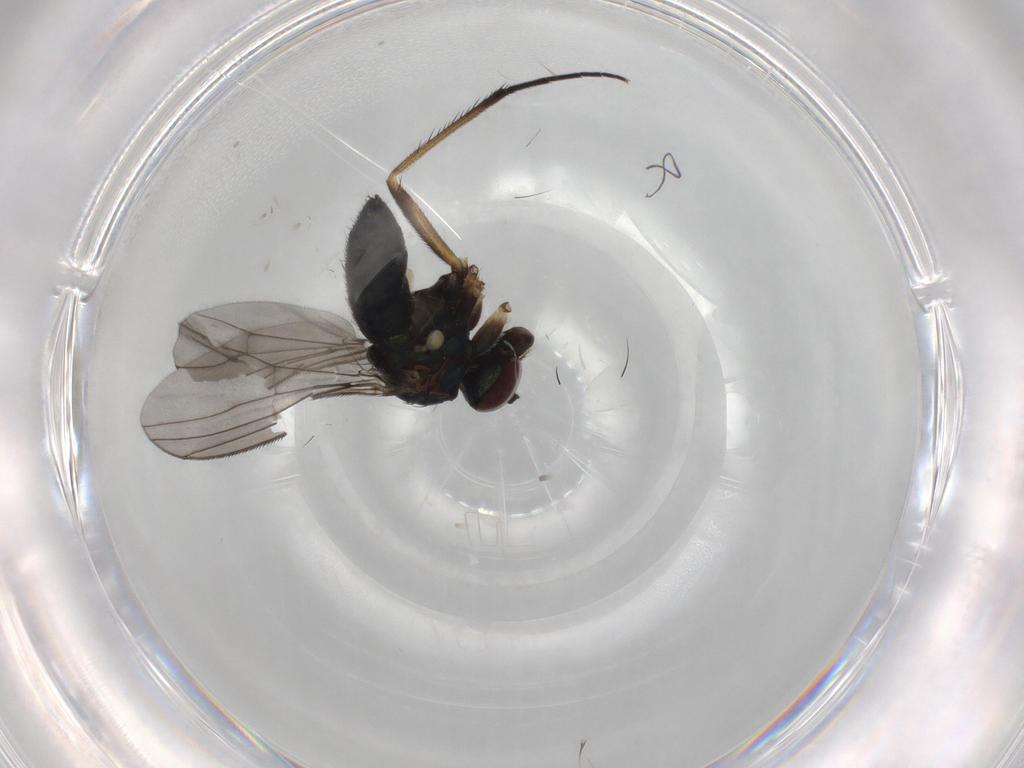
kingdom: Animalia
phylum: Arthropoda
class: Insecta
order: Diptera
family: Dolichopodidae
